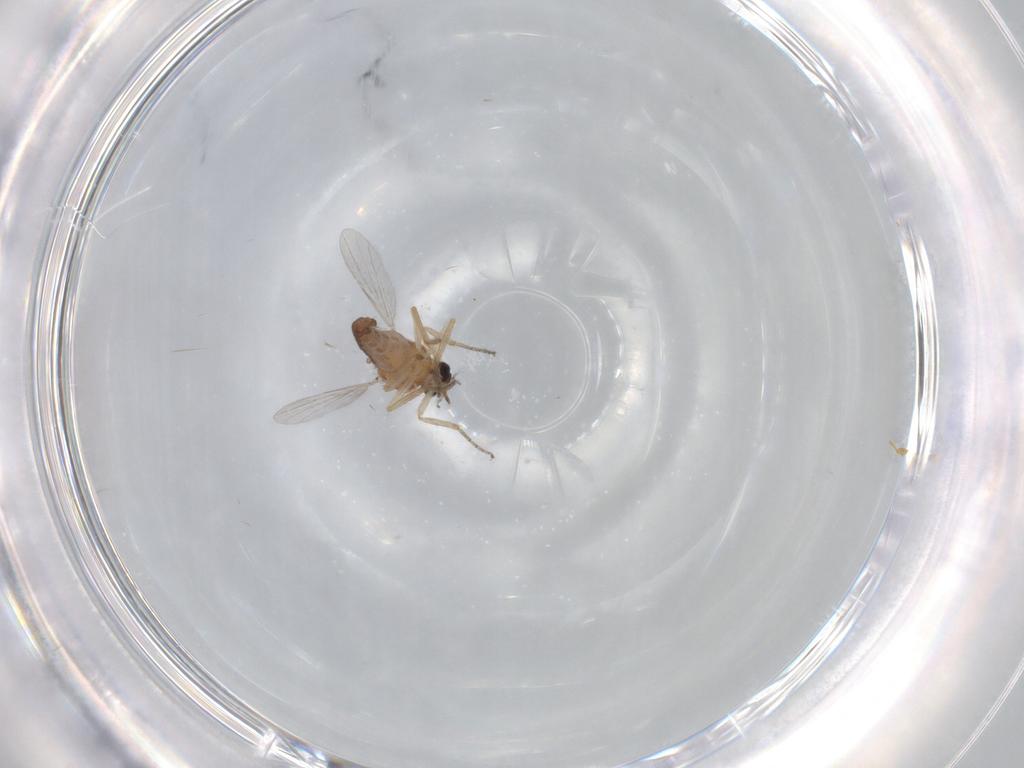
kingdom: Animalia
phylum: Arthropoda
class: Insecta
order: Diptera
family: Ceratopogonidae
